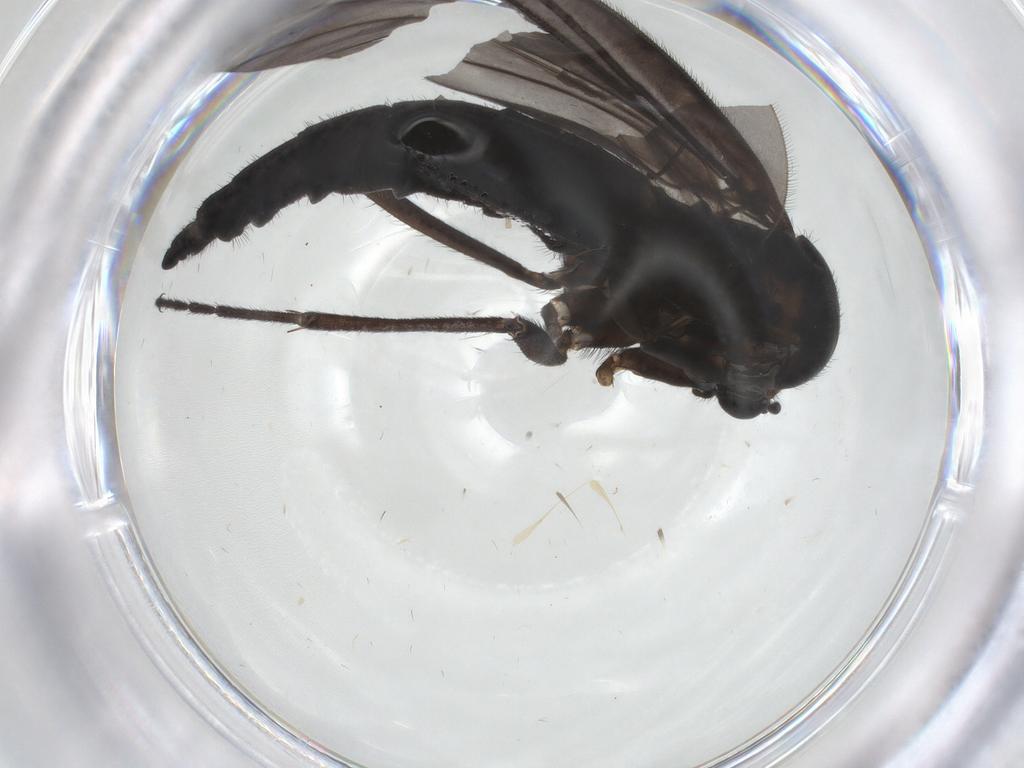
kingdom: Animalia
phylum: Arthropoda
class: Insecta
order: Diptera
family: Sciaridae
